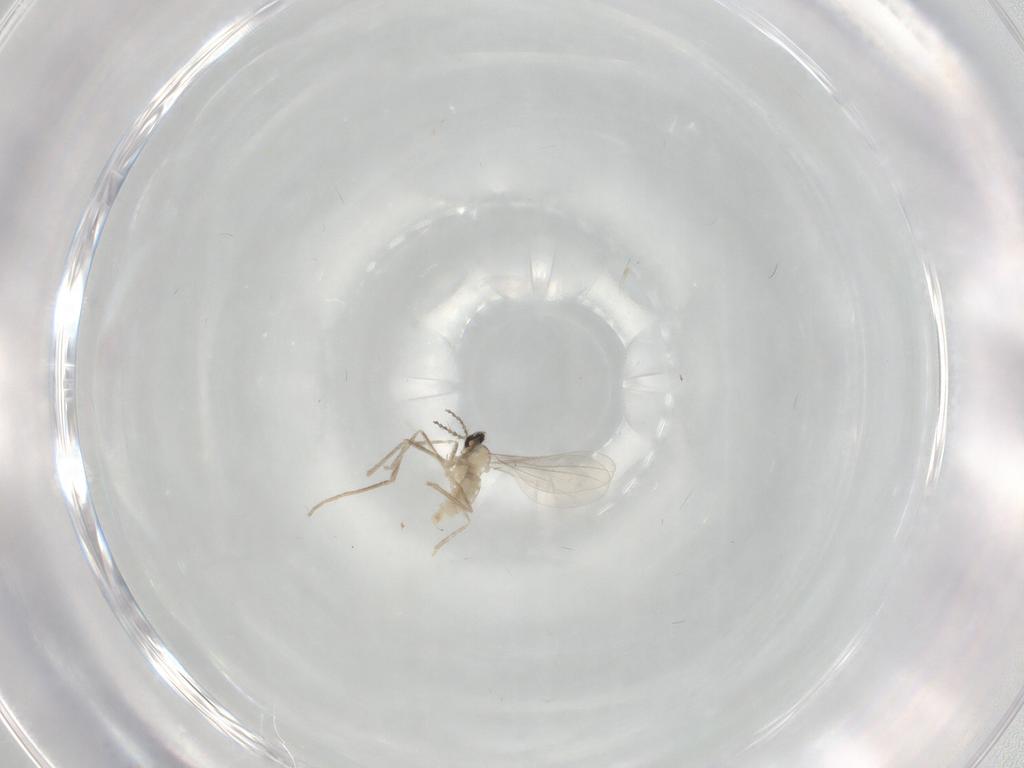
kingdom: Animalia
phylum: Arthropoda
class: Insecta
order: Diptera
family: Cecidomyiidae
